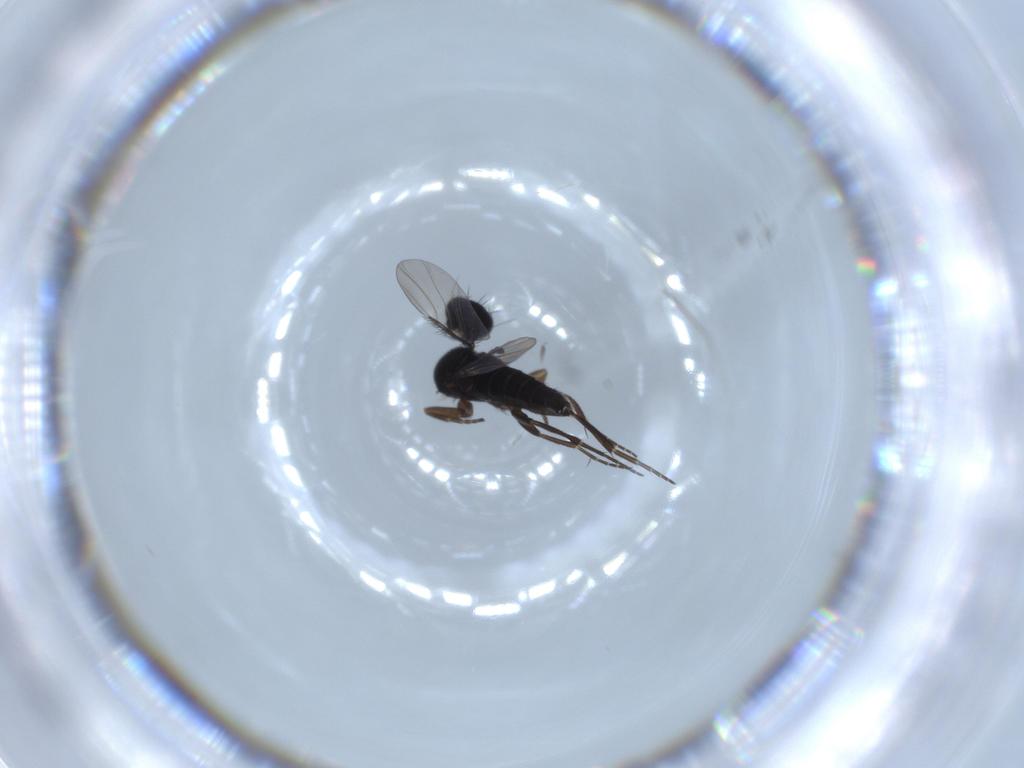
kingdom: Animalia
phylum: Arthropoda
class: Insecta
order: Diptera
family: Phoridae
